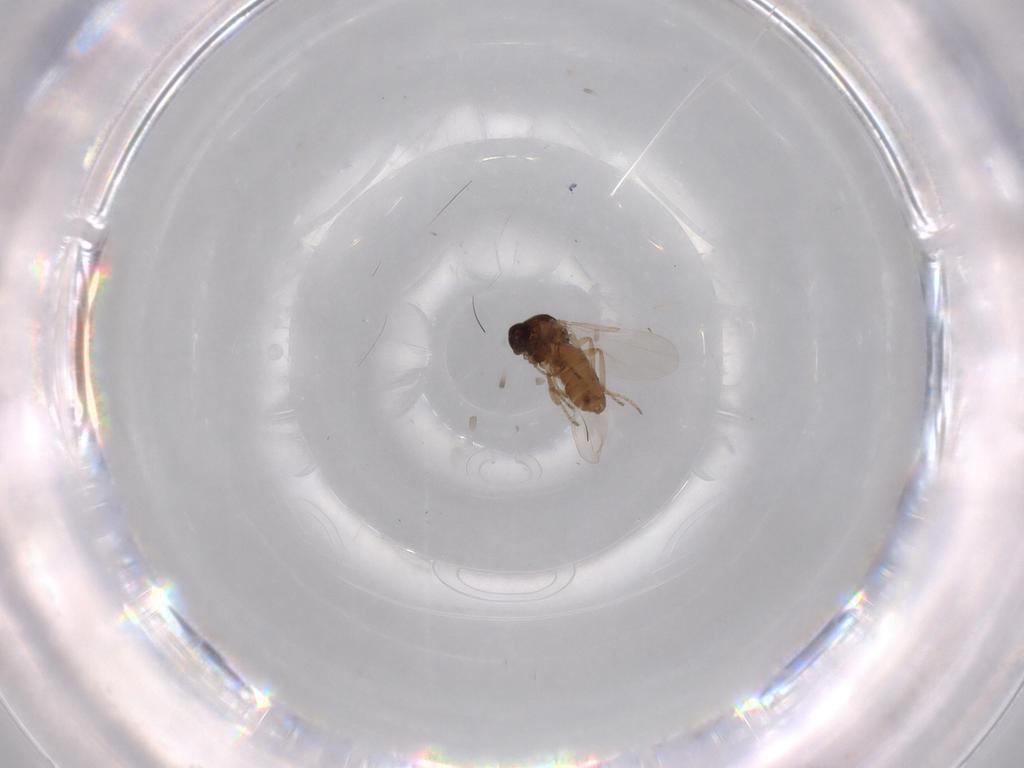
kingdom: Animalia
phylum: Arthropoda
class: Insecta
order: Diptera
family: Ceratopogonidae
